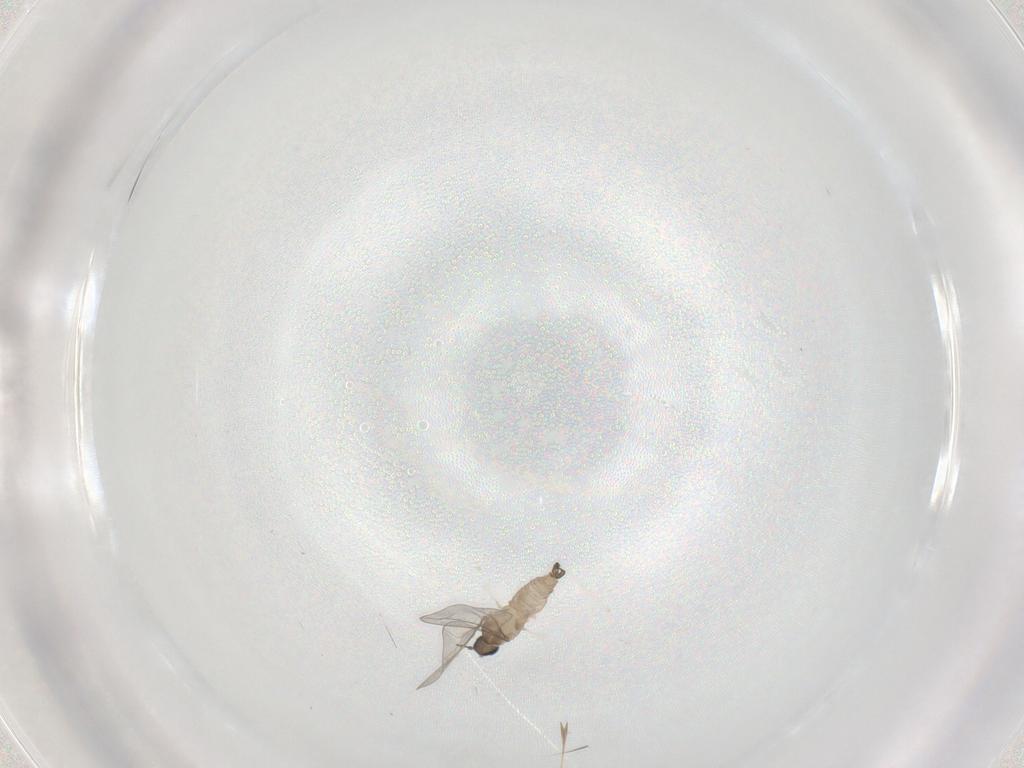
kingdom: Animalia
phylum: Arthropoda
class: Insecta
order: Diptera
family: Cecidomyiidae
